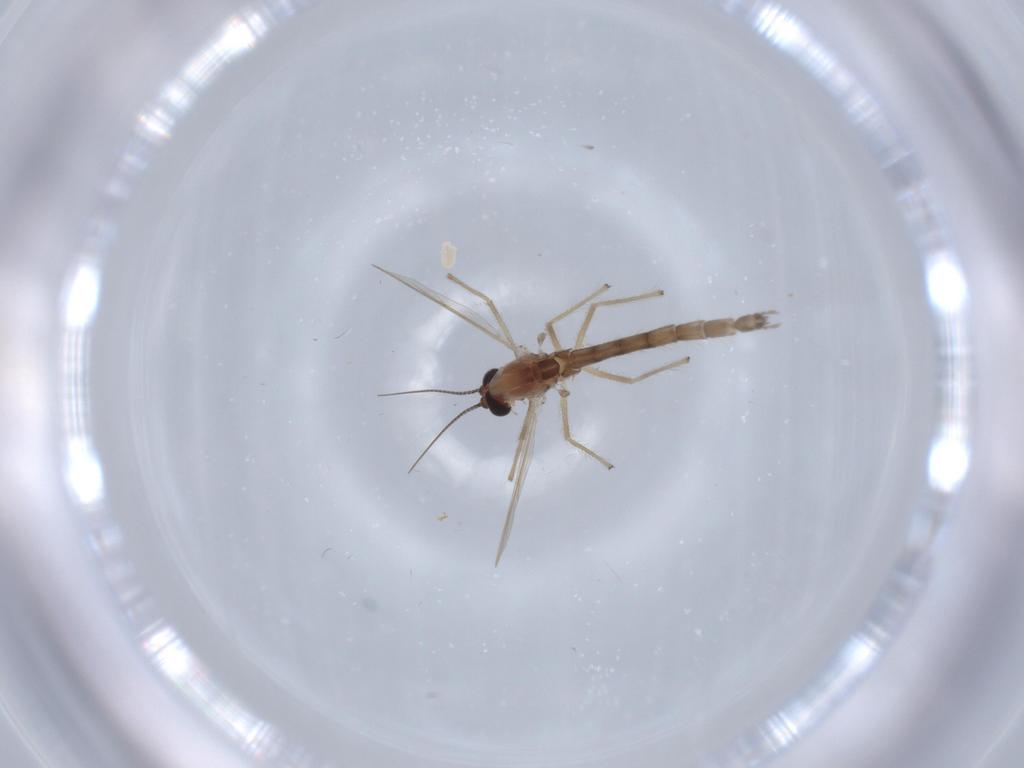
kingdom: Animalia
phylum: Arthropoda
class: Insecta
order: Diptera
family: Chironomidae
